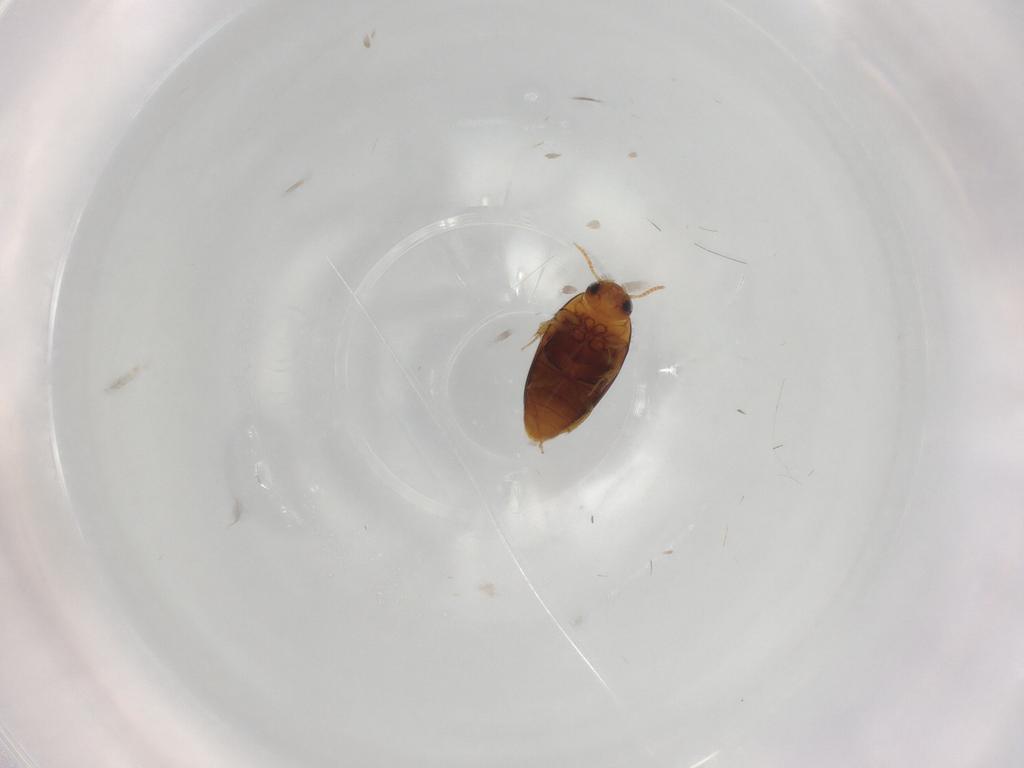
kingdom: Animalia
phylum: Arthropoda
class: Insecta
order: Coleoptera
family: Noteridae
